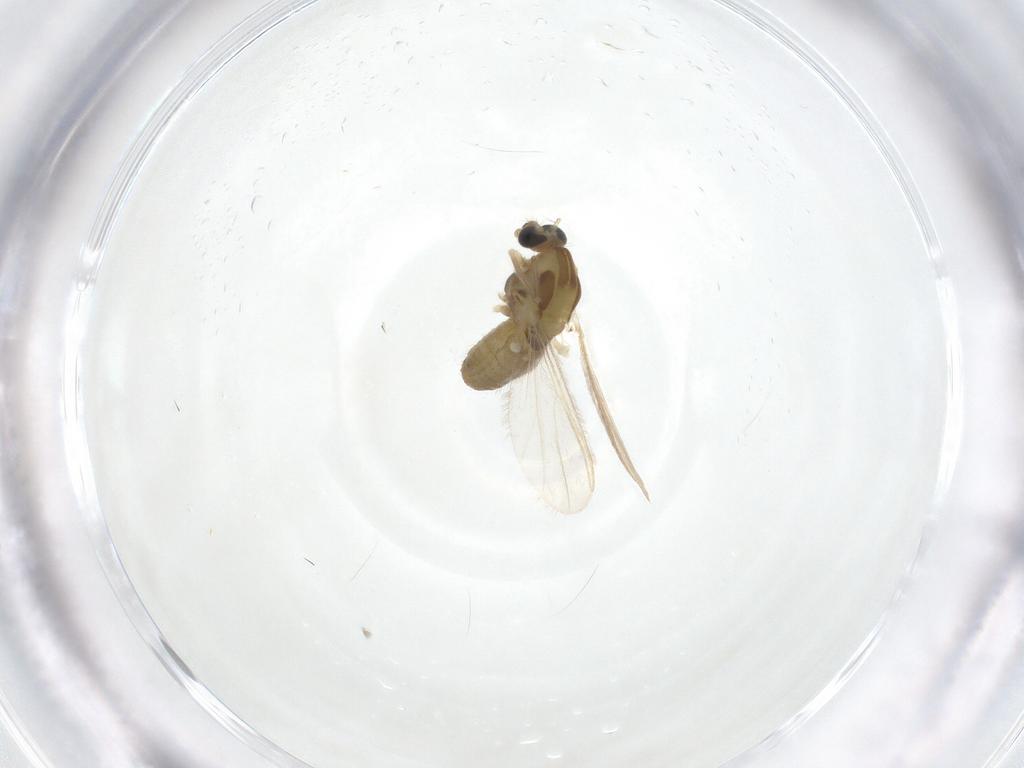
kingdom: Animalia
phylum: Arthropoda
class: Insecta
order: Diptera
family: Chironomidae
